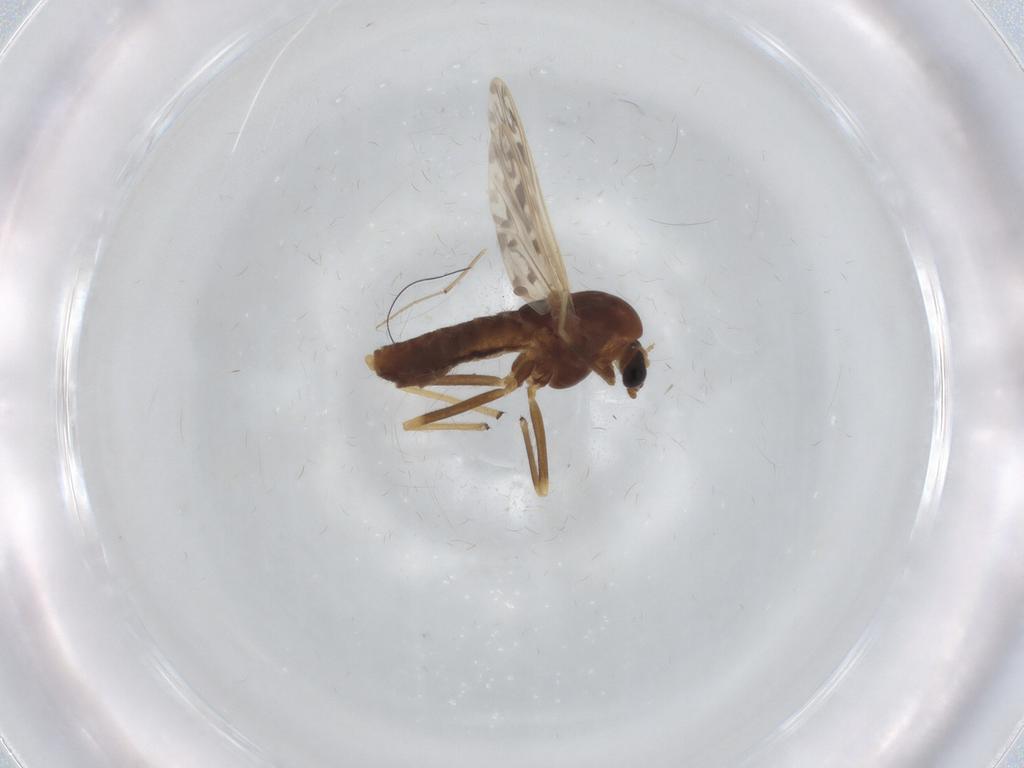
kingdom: Animalia
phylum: Arthropoda
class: Insecta
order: Diptera
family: Chironomidae
